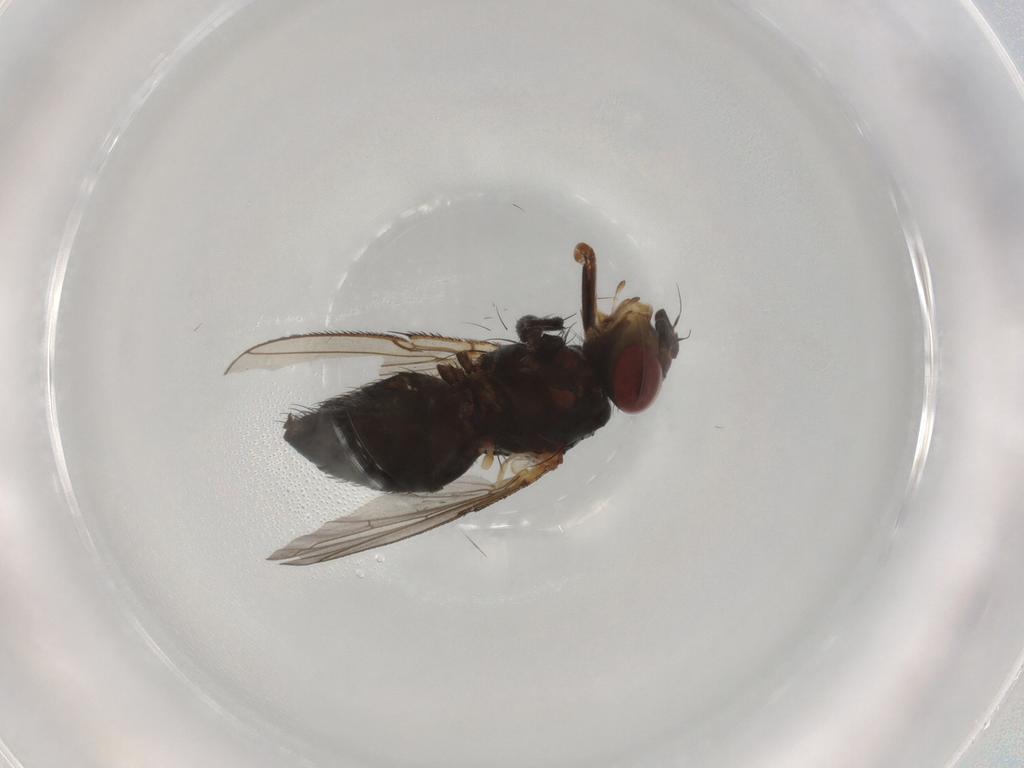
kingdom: Animalia
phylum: Arthropoda
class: Insecta
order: Diptera
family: Calliphoridae
